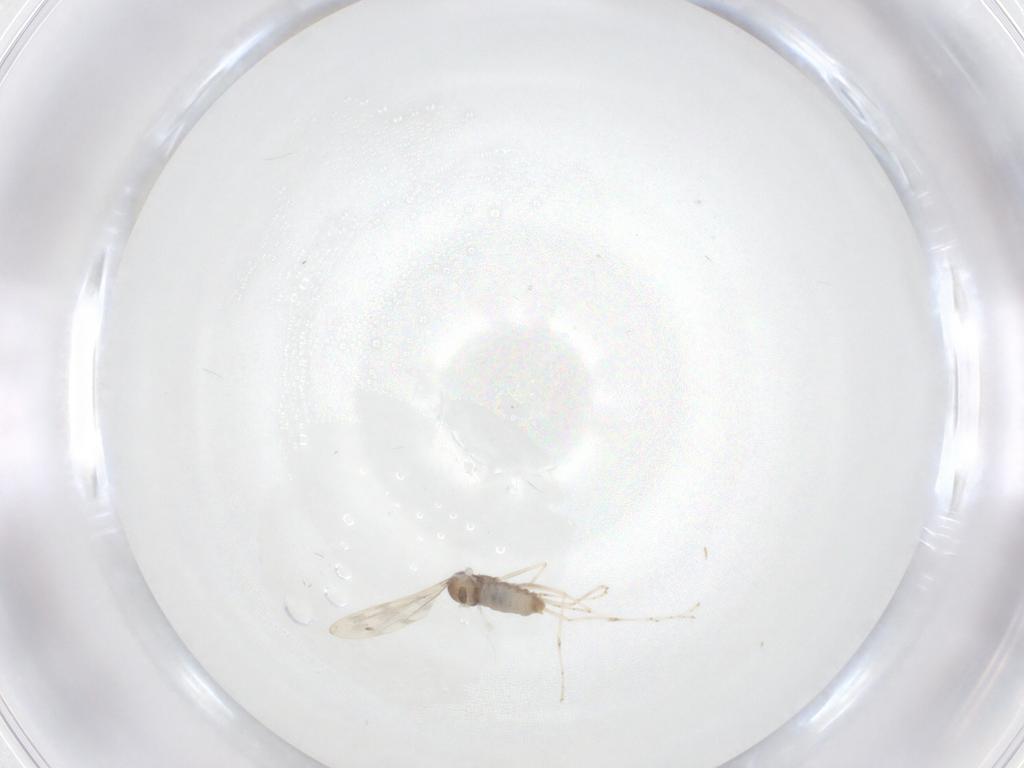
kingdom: Animalia
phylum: Arthropoda
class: Insecta
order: Diptera
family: Cecidomyiidae
